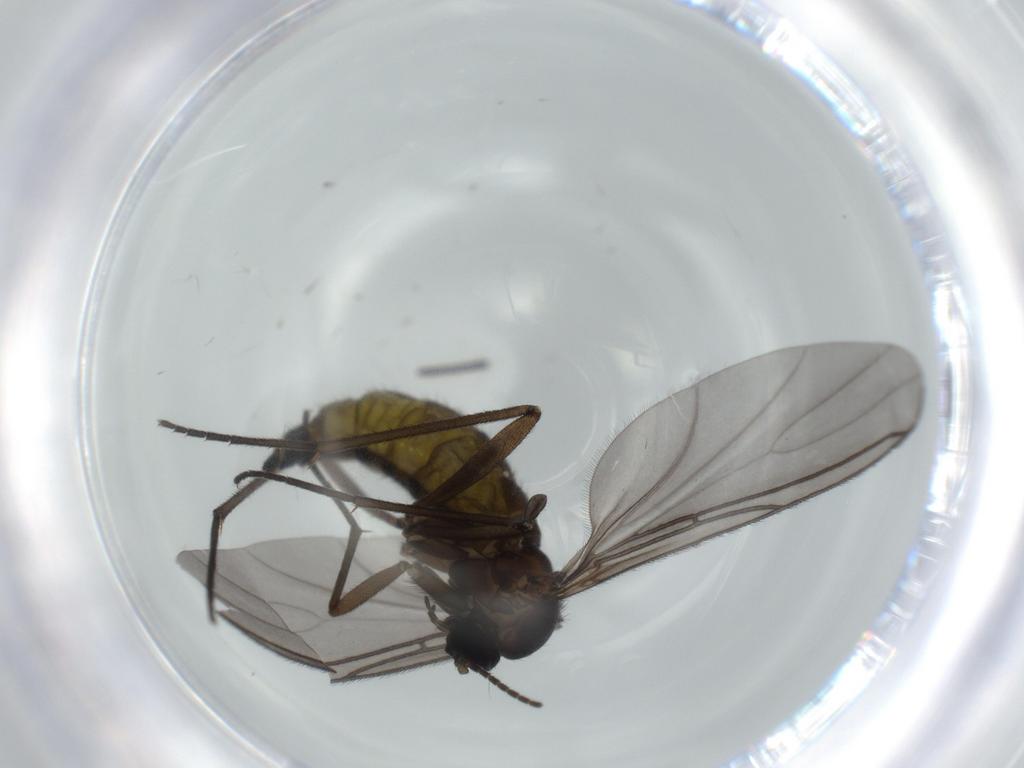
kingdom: Animalia
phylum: Arthropoda
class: Insecta
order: Diptera
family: Sciaridae
